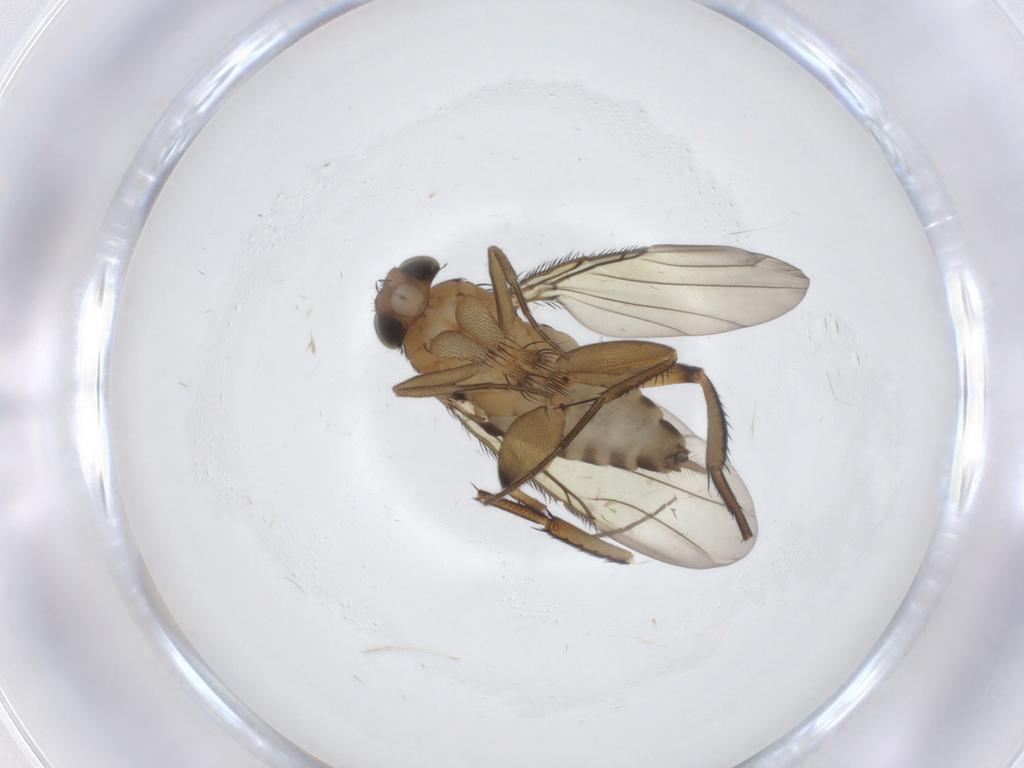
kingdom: Animalia
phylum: Arthropoda
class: Insecta
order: Diptera
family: Chironomidae
